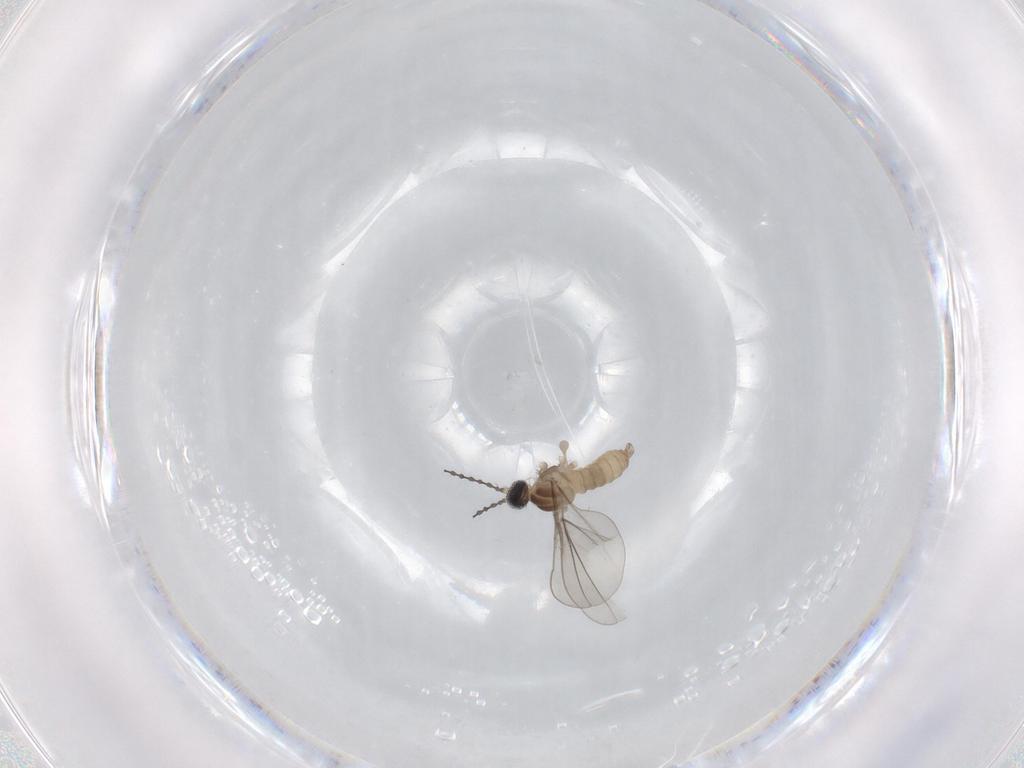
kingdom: Animalia
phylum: Arthropoda
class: Insecta
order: Diptera
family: Cecidomyiidae
